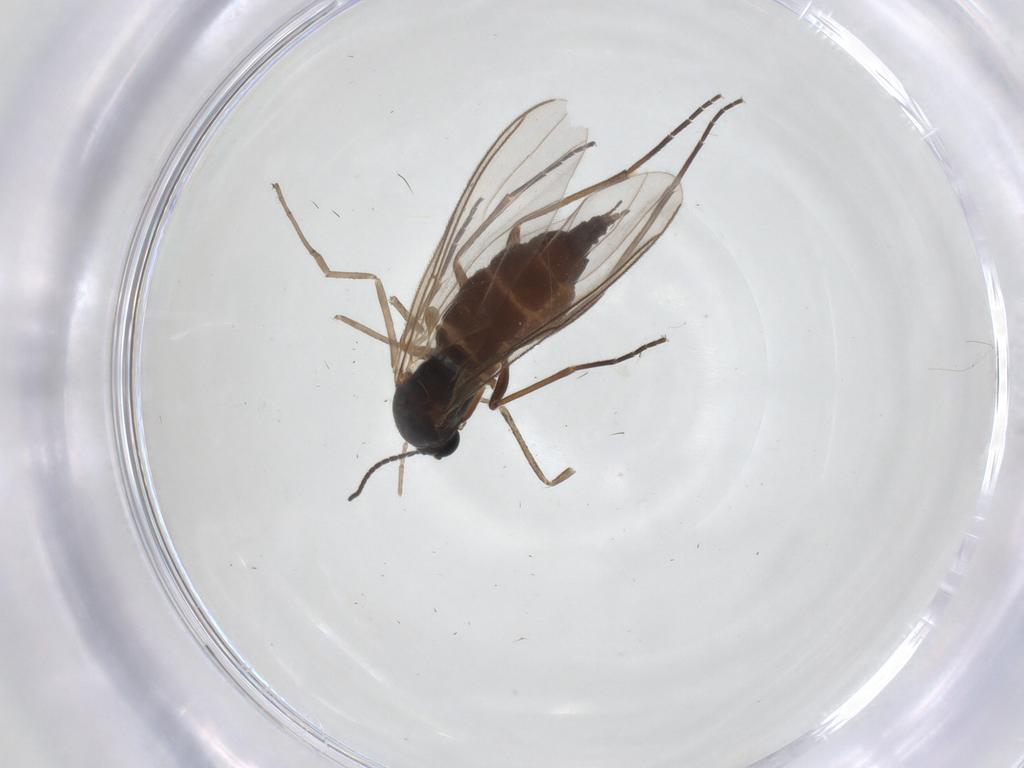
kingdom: Animalia
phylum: Arthropoda
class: Insecta
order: Diptera
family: Sciaridae
